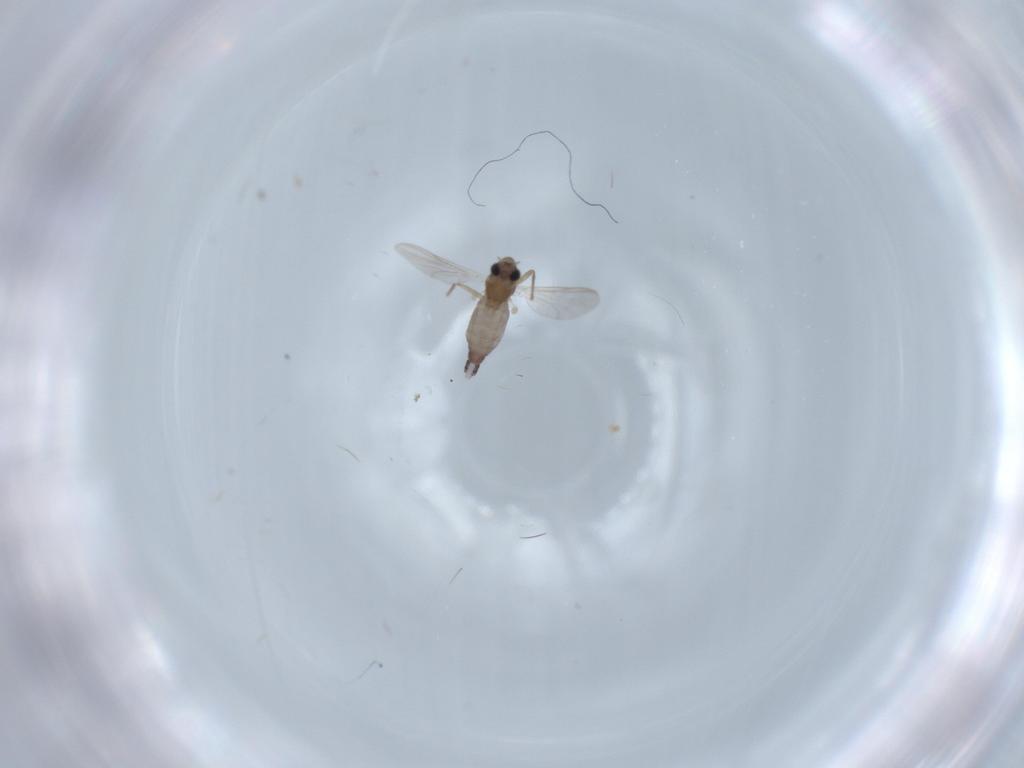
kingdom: Animalia
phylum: Arthropoda
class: Insecta
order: Diptera
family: Chironomidae
